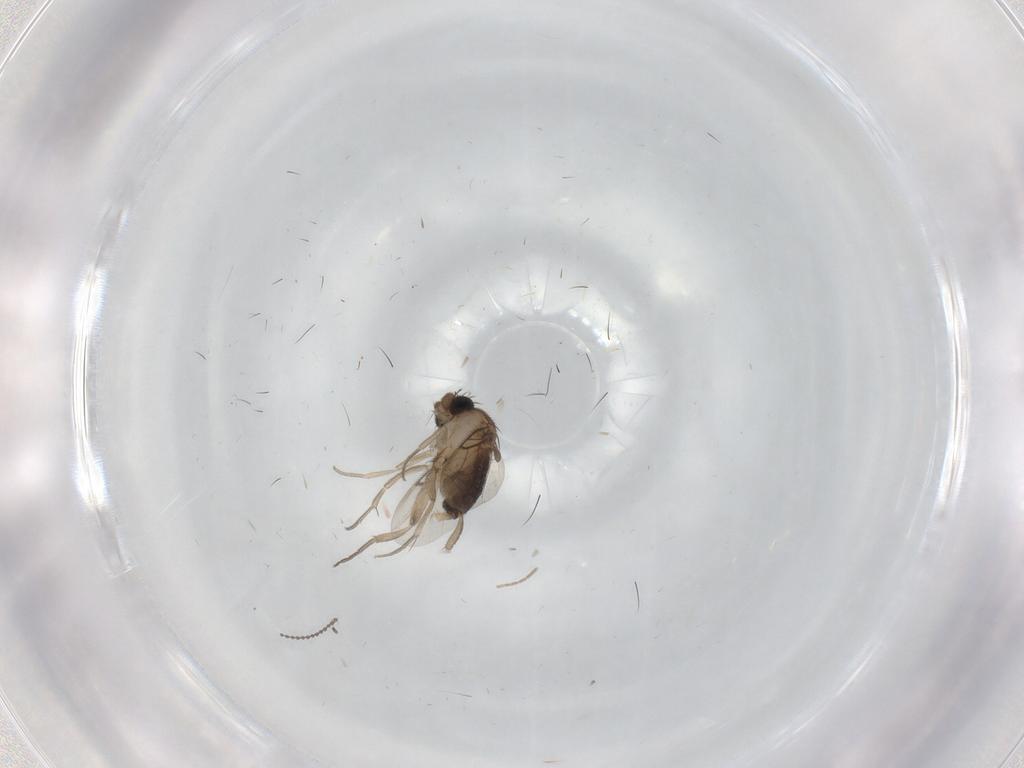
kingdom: Animalia
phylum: Arthropoda
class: Insecta
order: Diptera
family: Phoridae
